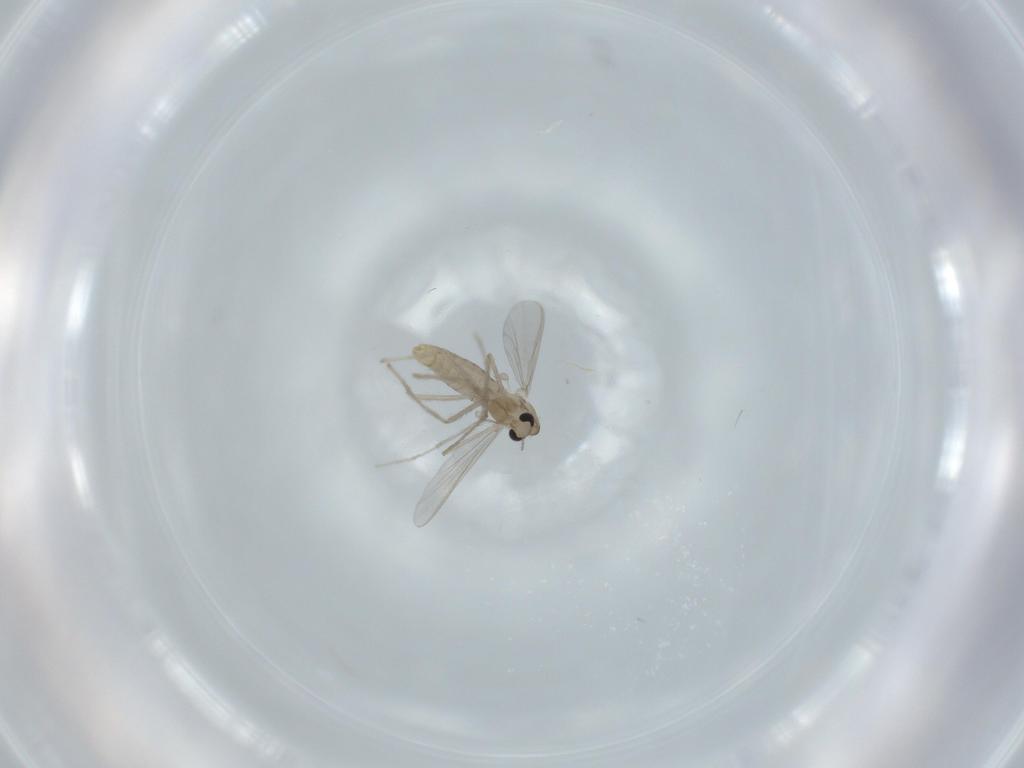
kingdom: Animalia
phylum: Arthropoda
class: Insecta
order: Diptera
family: Chironomidae
